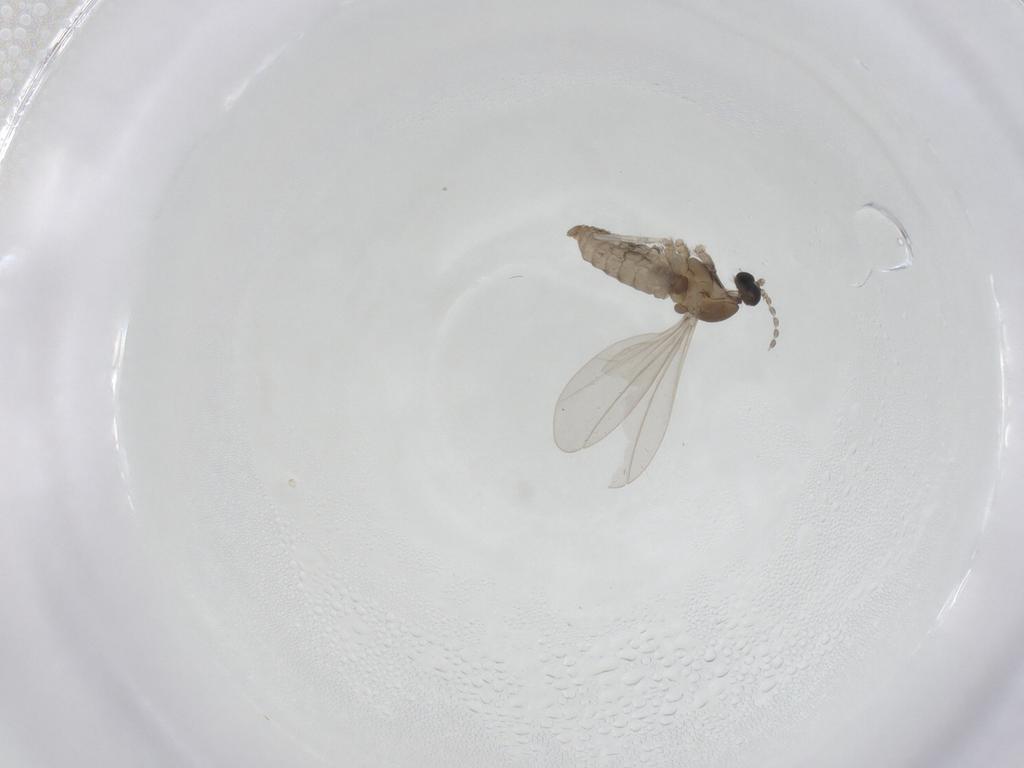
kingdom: Animalia
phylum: Arthropoda
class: Insecta
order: Diptera
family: Cecidomyiidae
